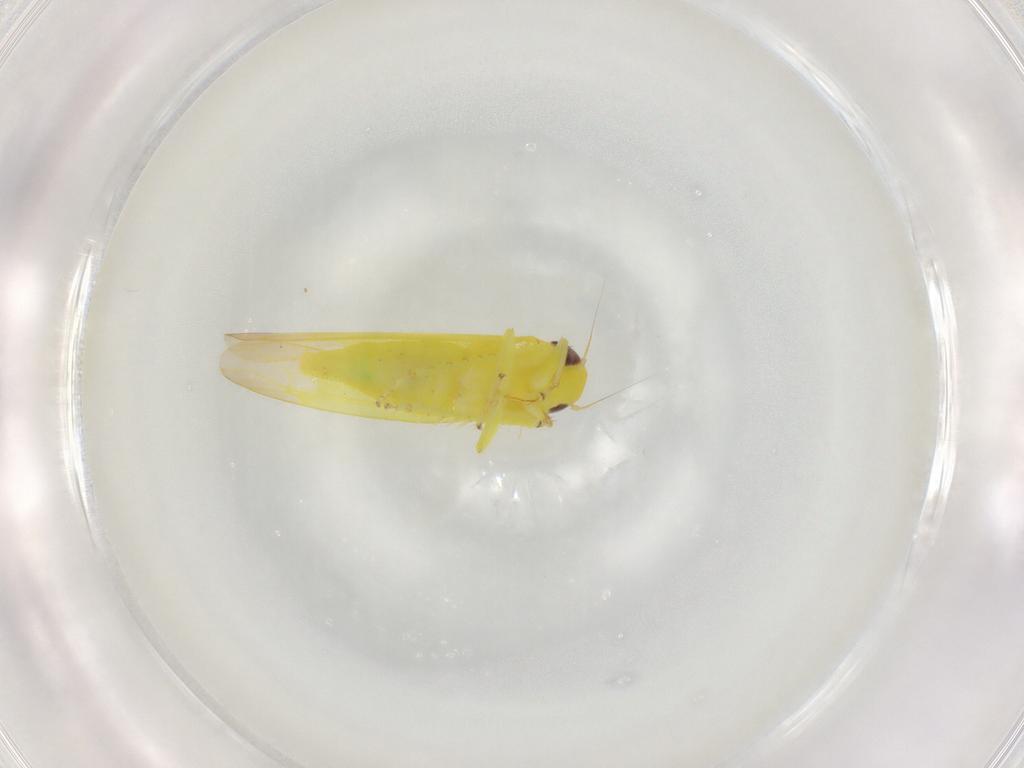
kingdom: Animalia
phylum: Arthropoda
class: Insecta
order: Hemiptera
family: Cicadellidae
